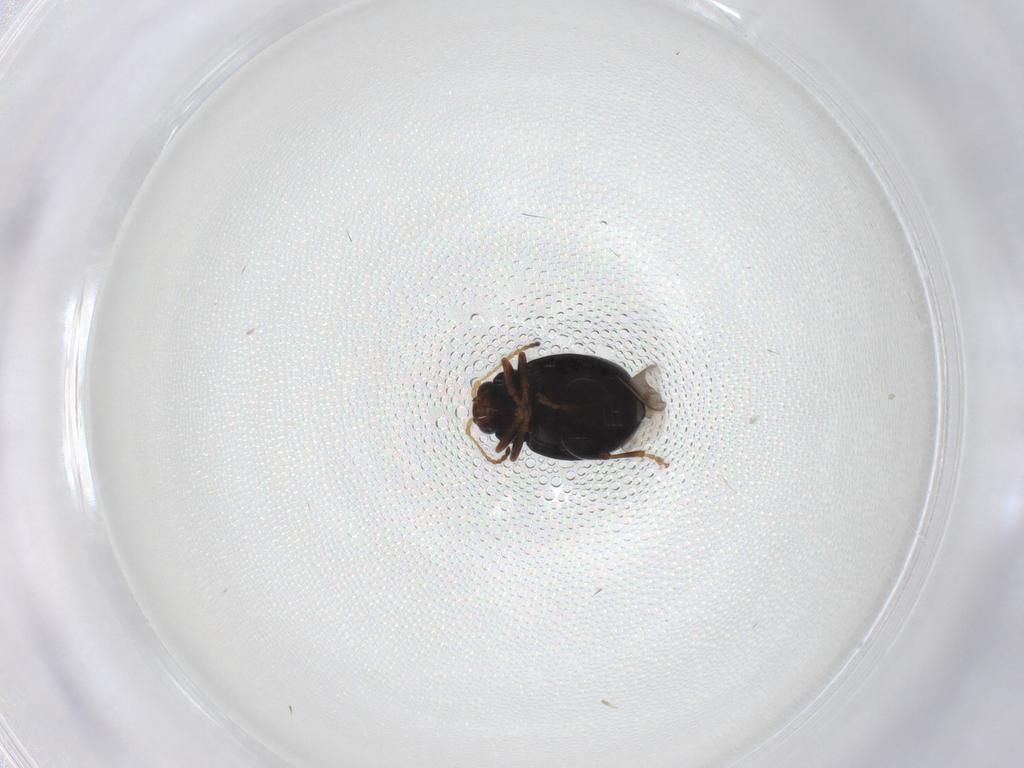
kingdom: Animalia
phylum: Arthropoda
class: Insecta
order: Coleoptera
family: Chrysomelidae
